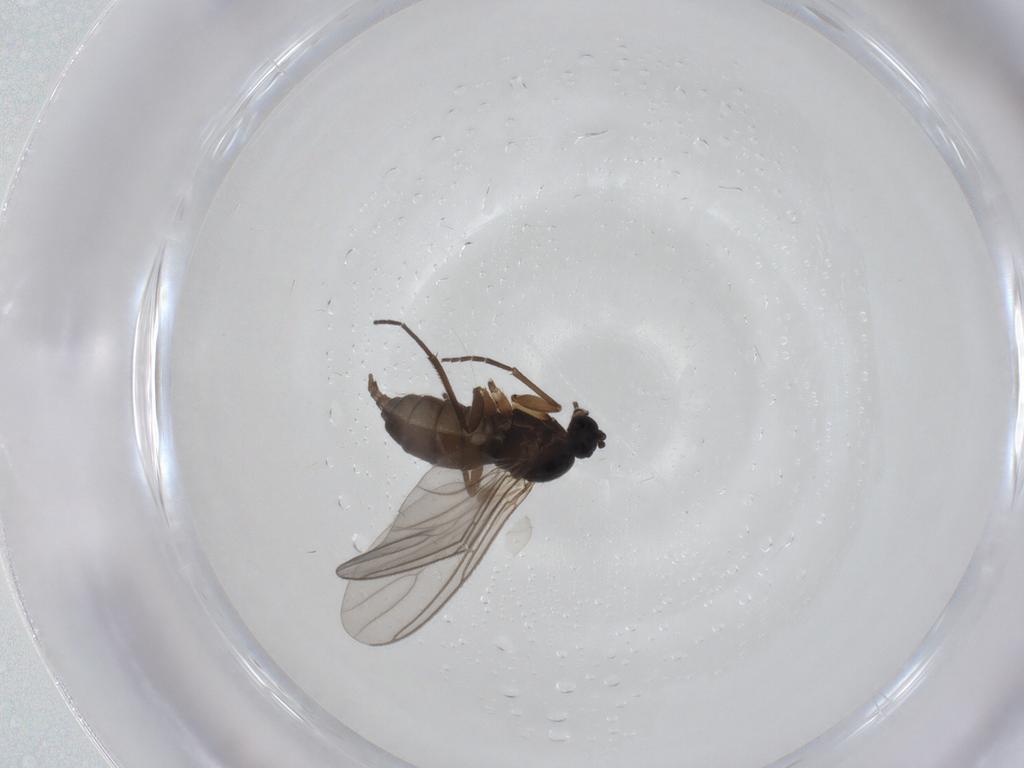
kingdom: Animalia
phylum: Arthropoda
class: Insecta
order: Diptera
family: Sciaridae
